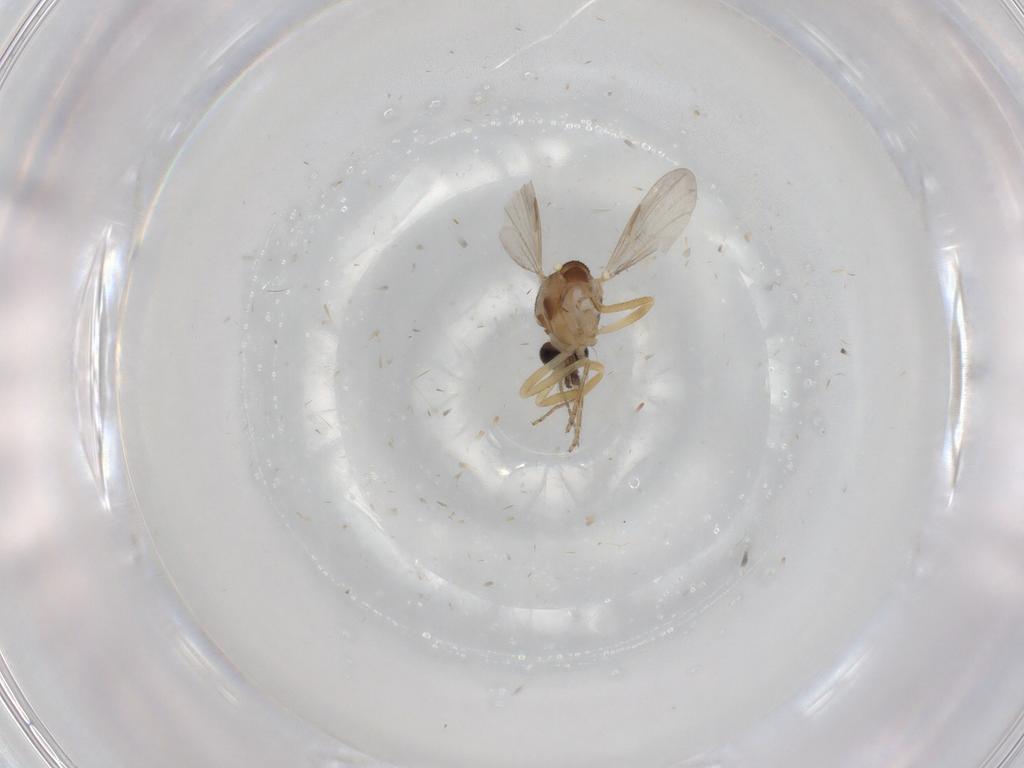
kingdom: Animalia
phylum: Arthropoda
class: Insecta
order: Diptera
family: Ceratopogonidae
